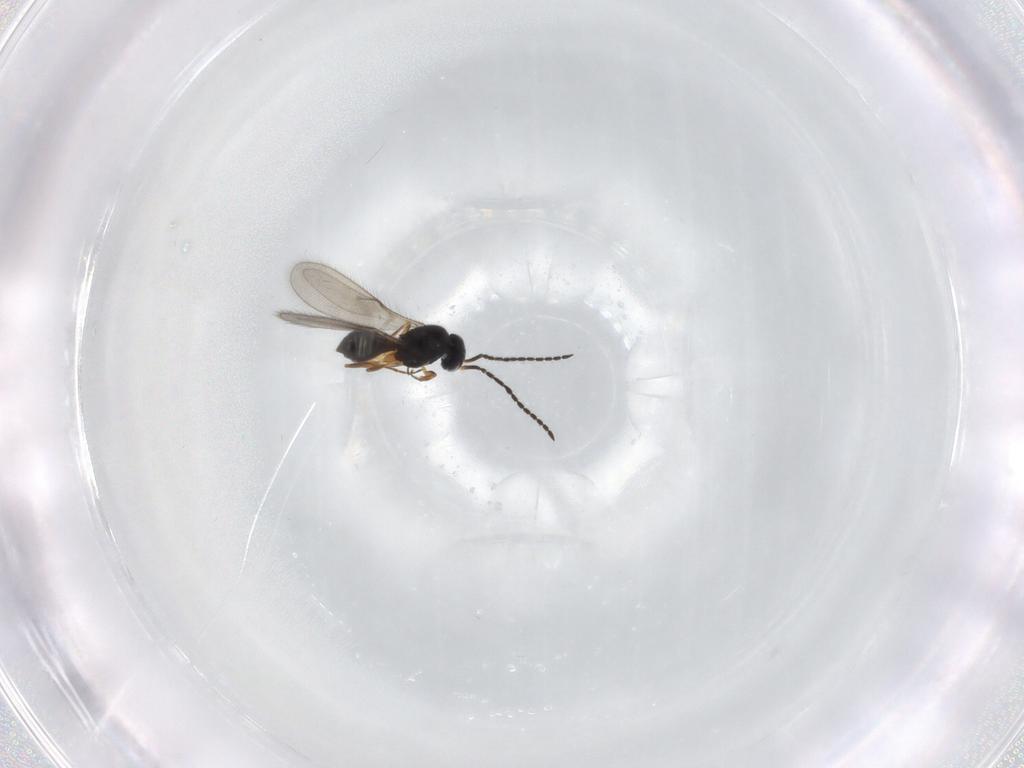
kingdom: Animalia
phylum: Arthropoda
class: Insecta
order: Hymenoptera
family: Scelionidae
